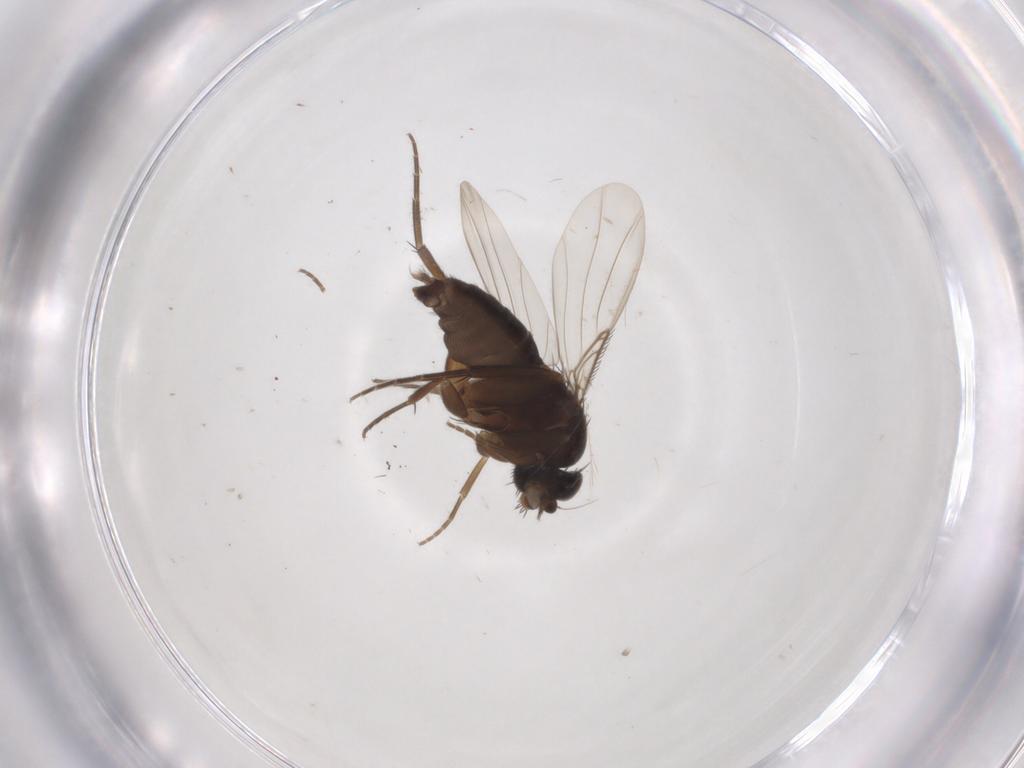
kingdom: Animalia
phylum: Arthropoda
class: Insecta
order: Diptera
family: Phoridae
